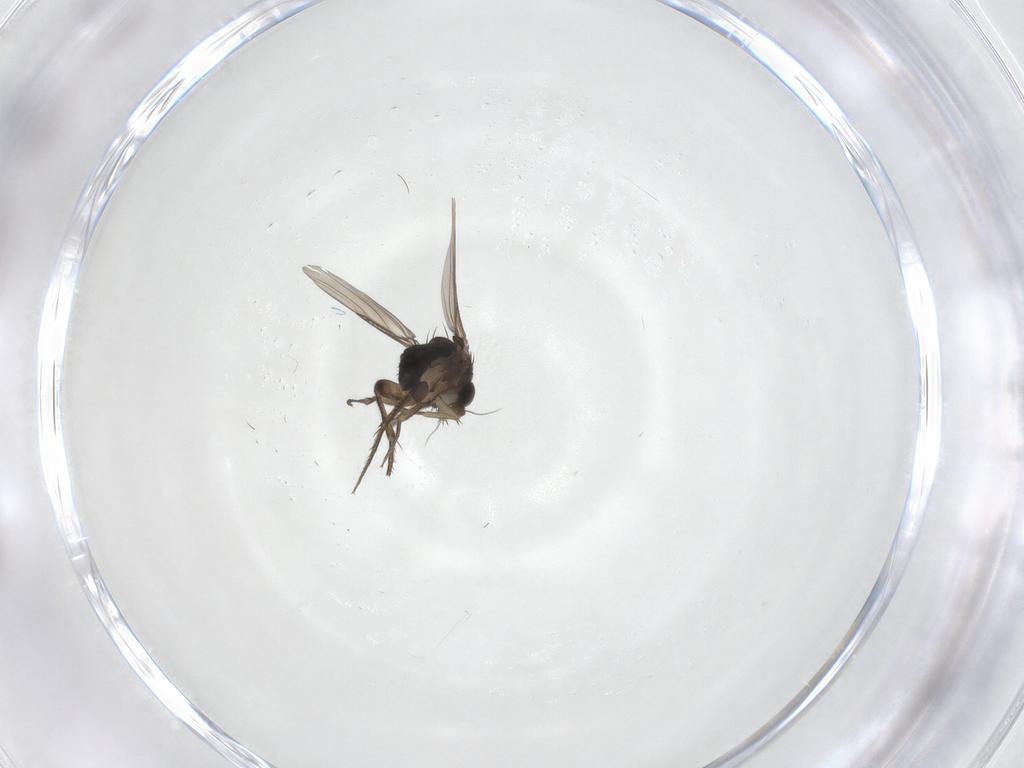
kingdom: Animalia
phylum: Arthropoda
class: Insecta
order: Diptera
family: Phoridae
